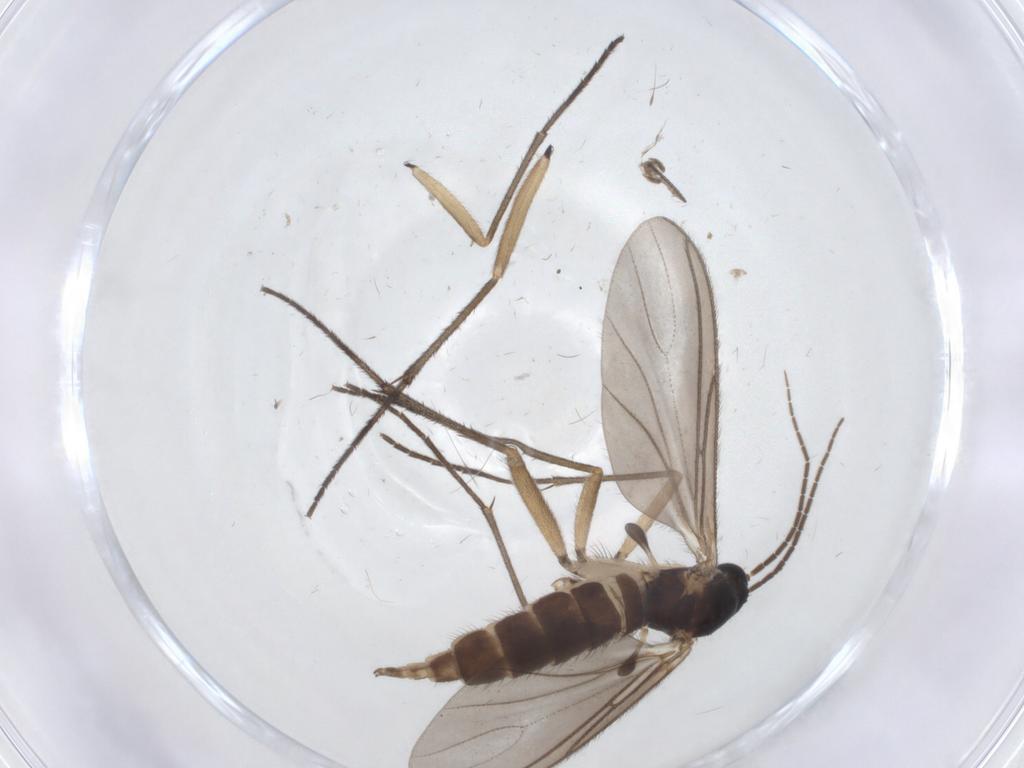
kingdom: Animalia
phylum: Arthropoda
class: Insecta
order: Diptera
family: Sciaridae
